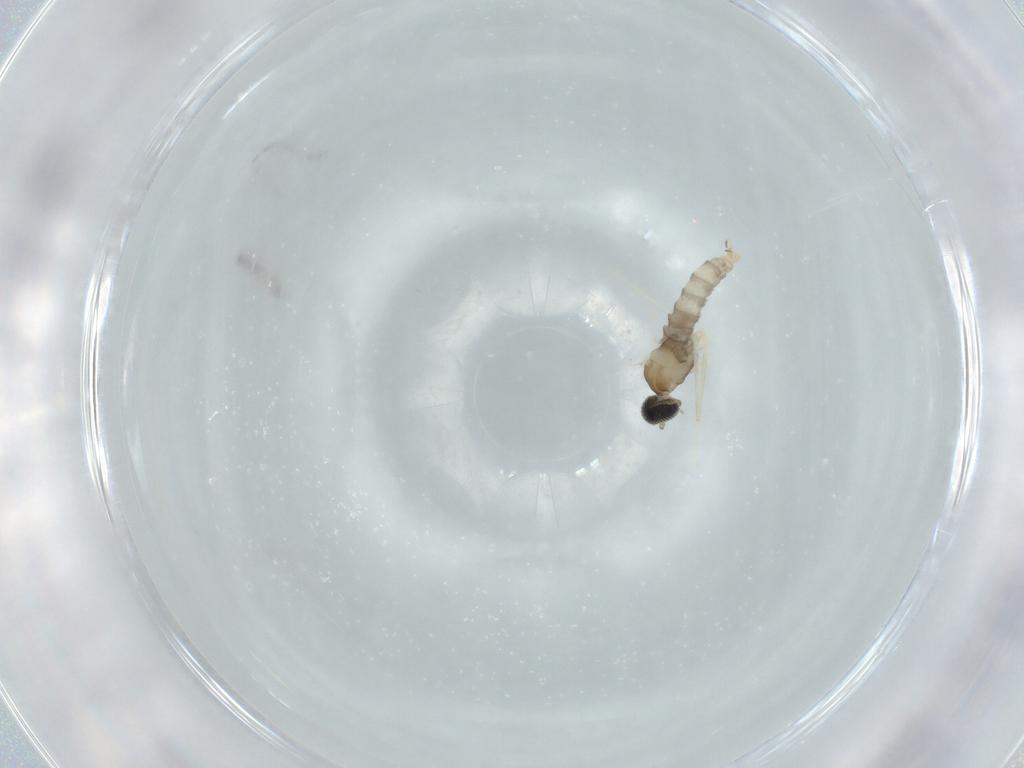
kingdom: Animalia
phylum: Arthropoda
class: Insecta
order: Diptera
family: Cecidomyiidae
